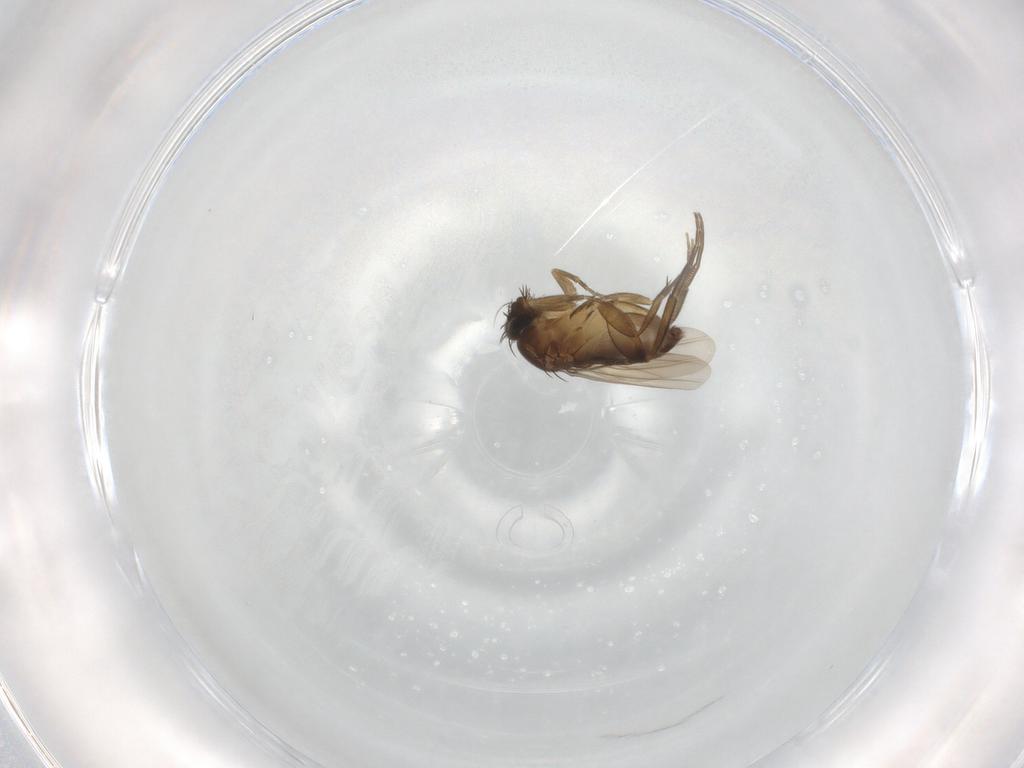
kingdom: Animalia
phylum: Arthropoda
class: Insecta
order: Diptera
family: Phoridae
